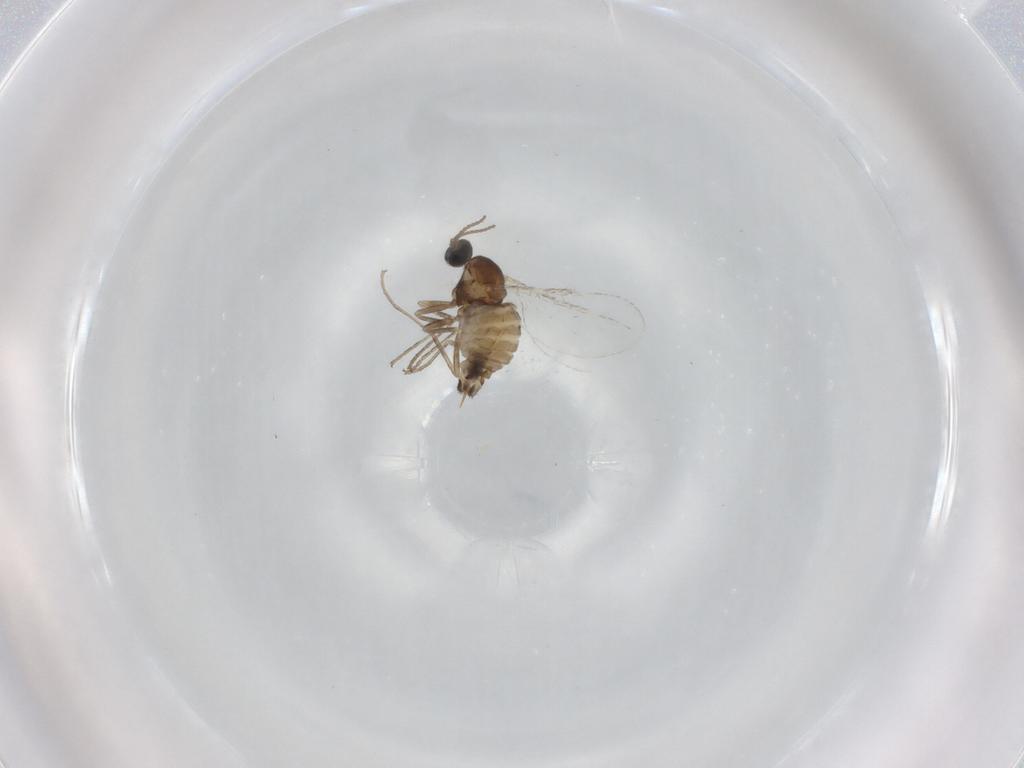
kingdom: Animalia
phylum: Arthropoda
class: Insecta
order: Diptera
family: Cecidomyiidae
